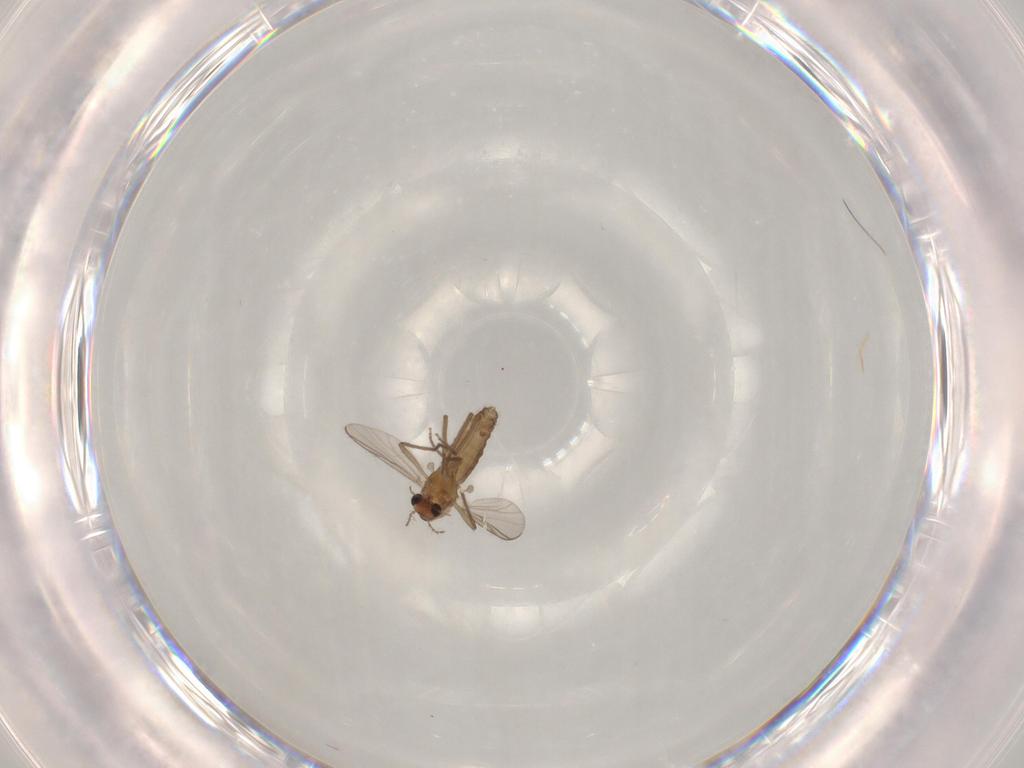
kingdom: Animalia
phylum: Arthropoda
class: Insecta
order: Diptera
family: Chironomidae
